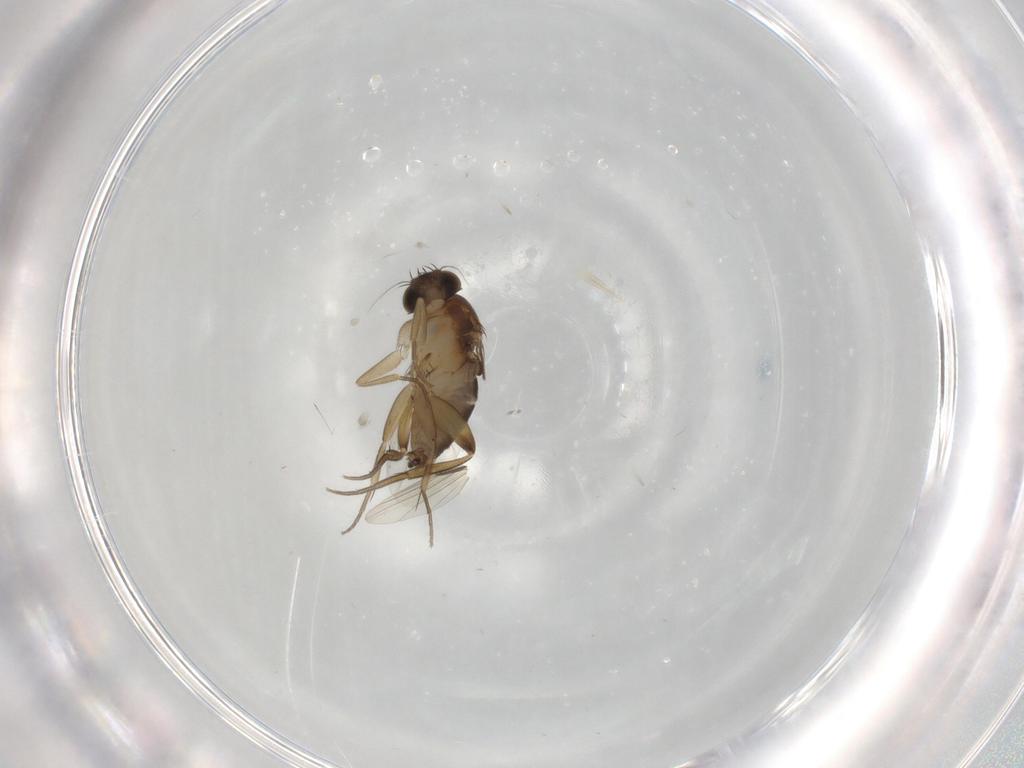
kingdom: Animalia
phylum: Arthropoda
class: Insecta
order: Diptera
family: Phoridae
